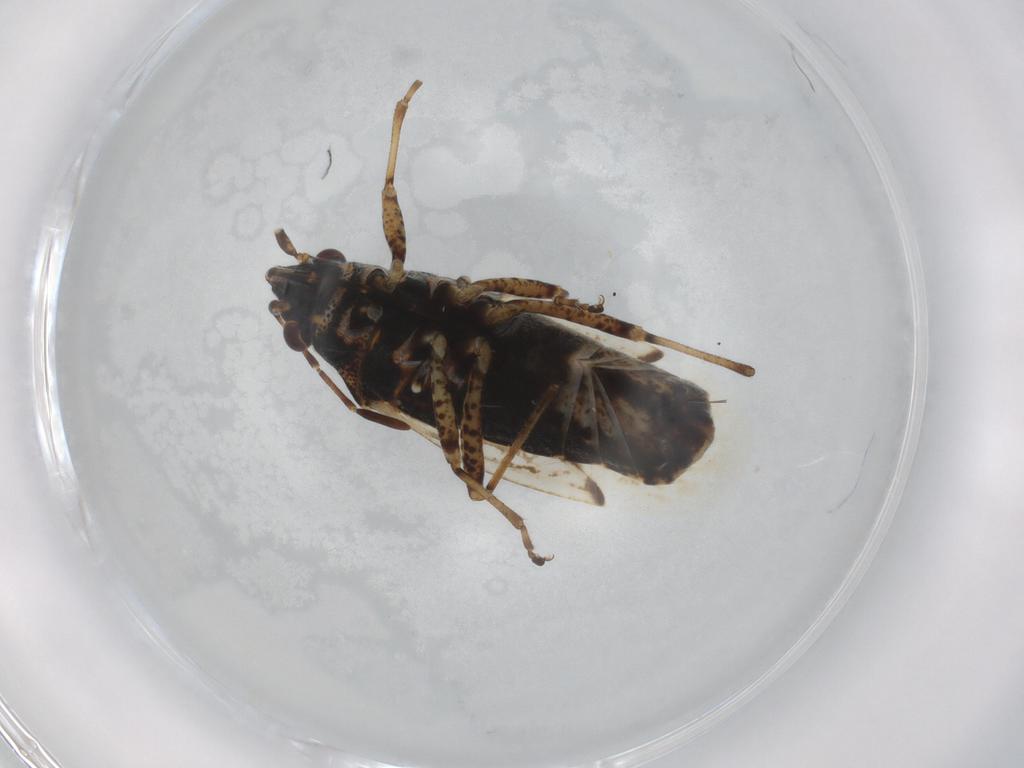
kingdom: Animalia
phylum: Arthropoda
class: Insecta
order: Hemiptera
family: Lygaeidae
